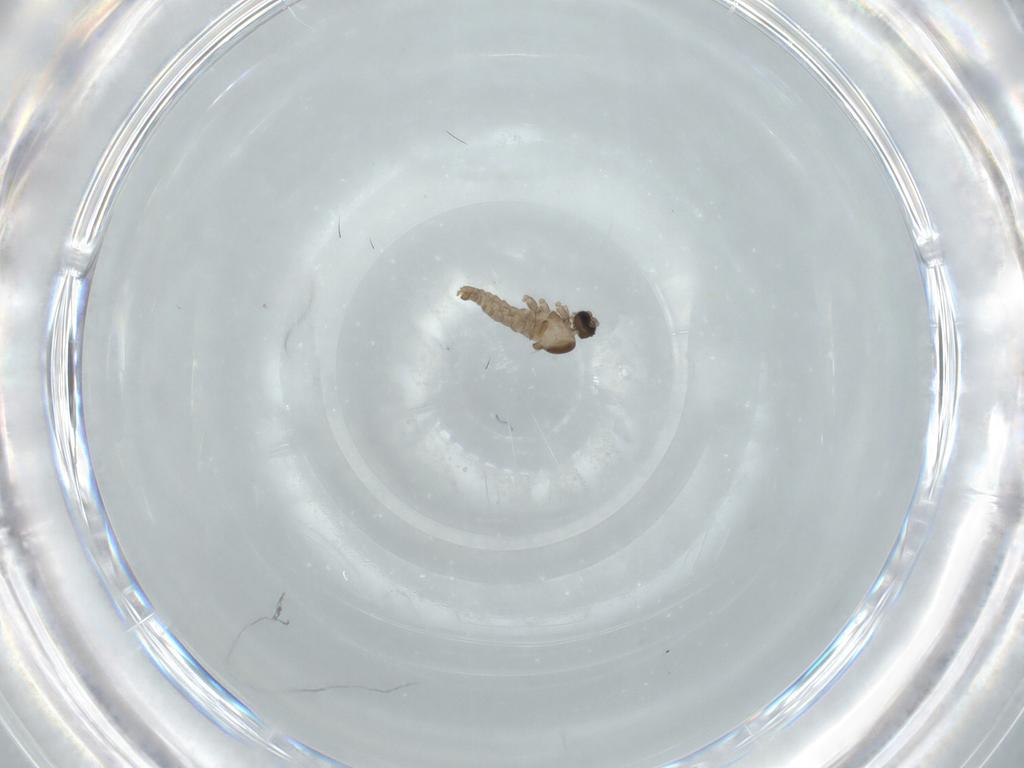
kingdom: Animalia
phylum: Arthropoda
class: Insecta
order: Diptera
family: Cecidomyiidae
